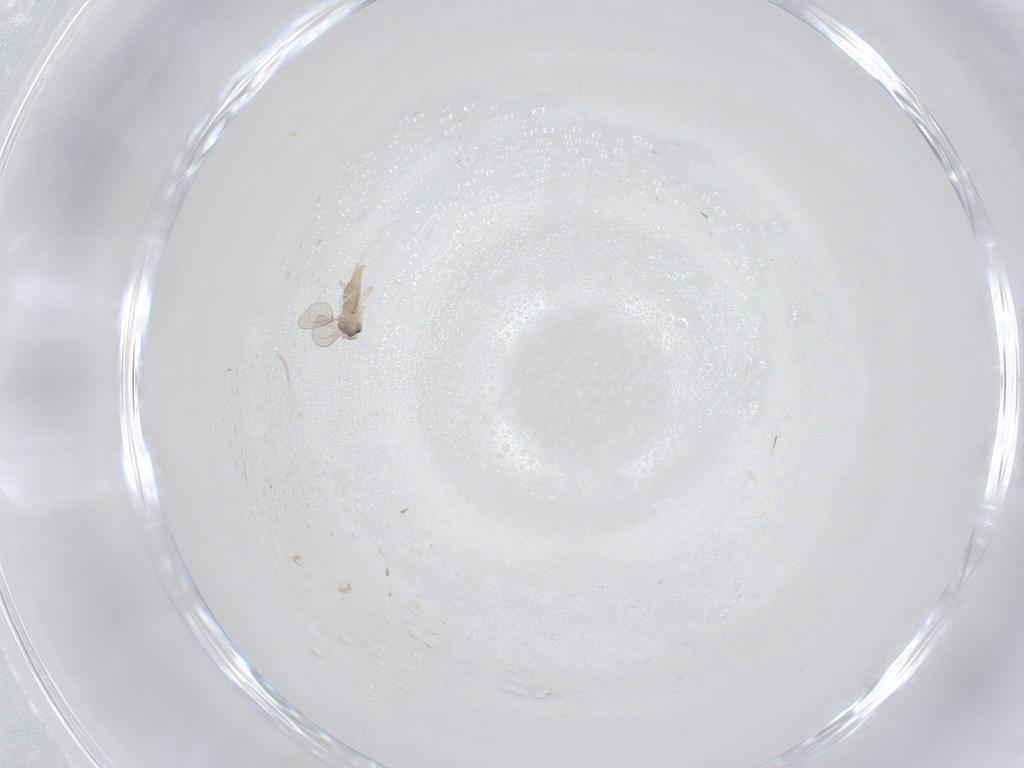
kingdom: Animalia
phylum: Arthropoda
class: Insecta
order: Diptera
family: Cecidomyiidae
